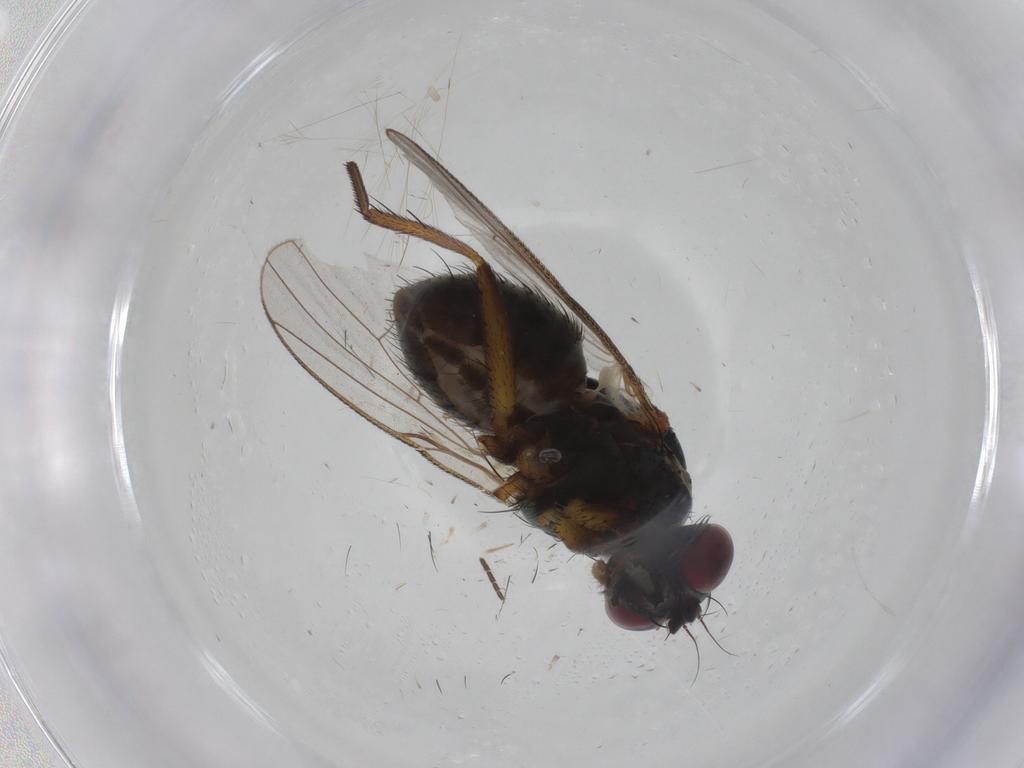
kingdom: Animalia
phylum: Arthropoda
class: Insecta
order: Diptera
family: Muscidae
